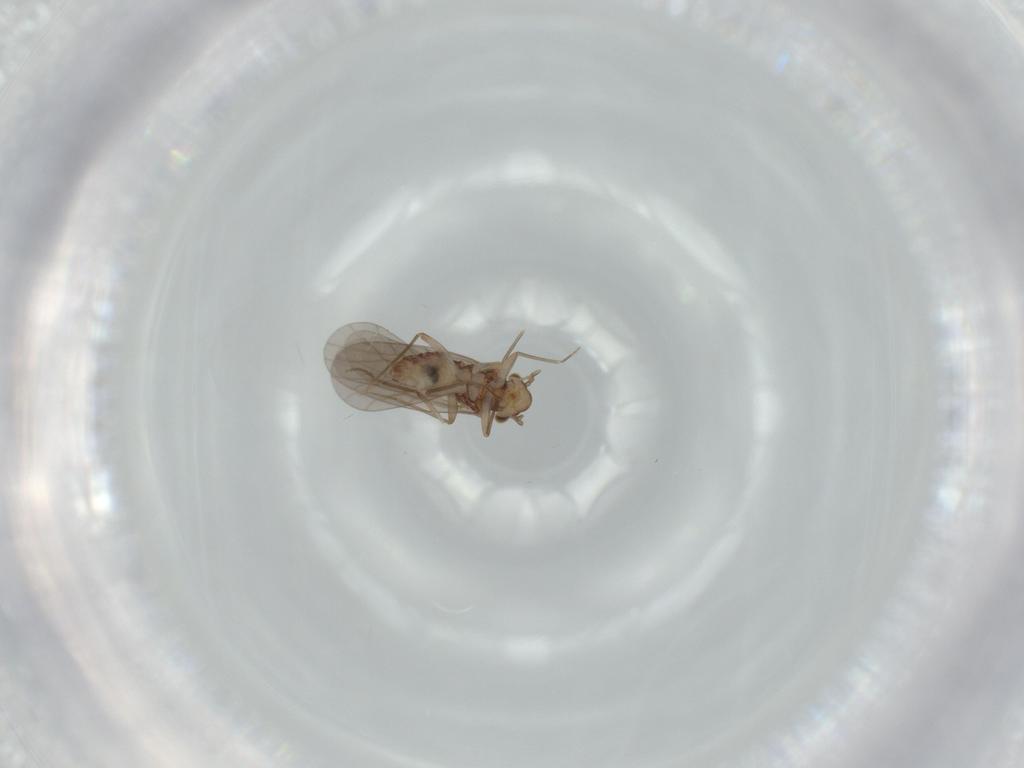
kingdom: Animalia
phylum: Arthropoda
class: Insecta
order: Psocodea
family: Lepidopsocidae
